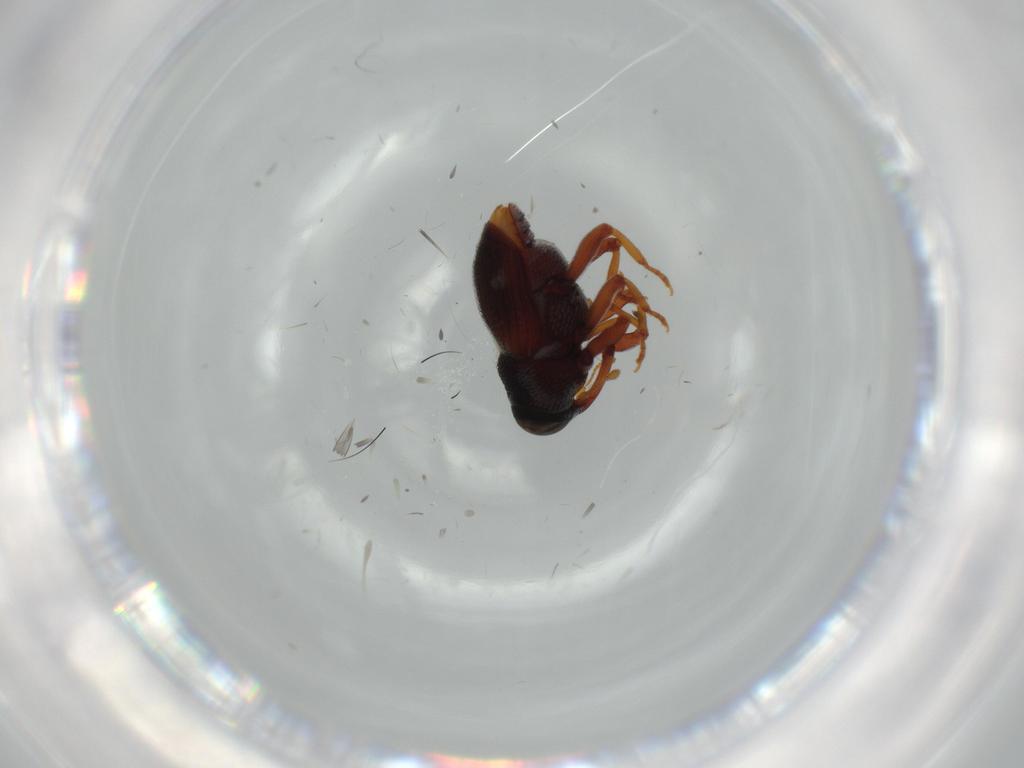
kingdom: Animalia
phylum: Arthropoda
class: Insecta
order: Coleoptera
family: Curculionidae
